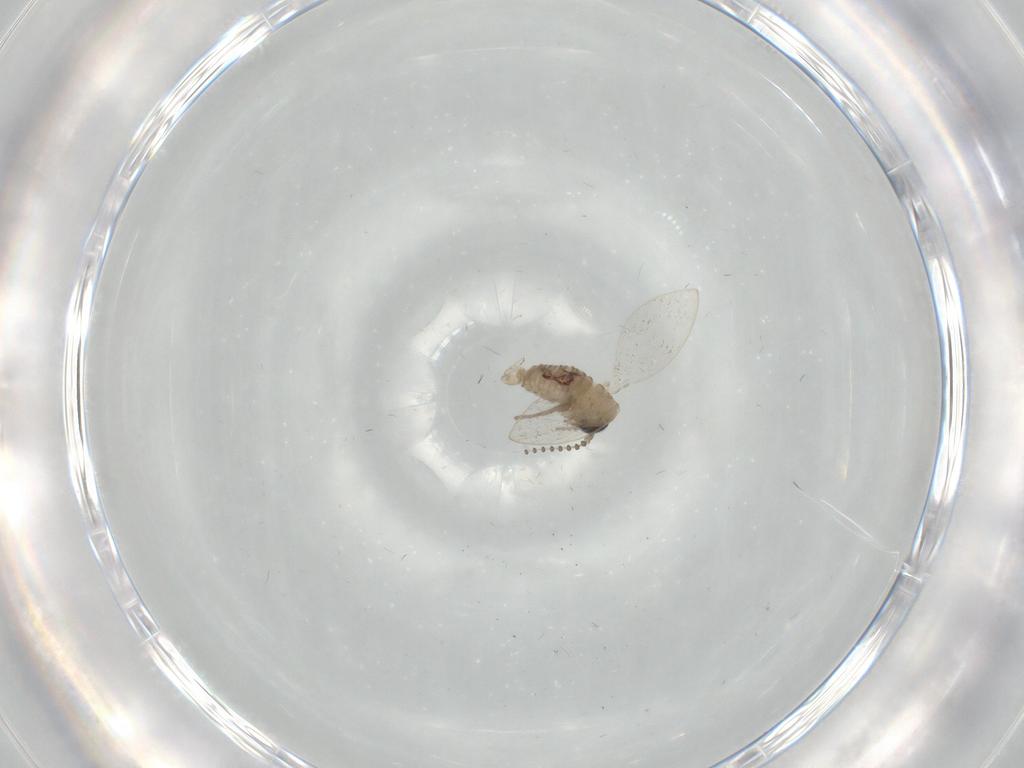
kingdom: Animalia
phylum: Arthropoda
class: Insecta
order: Diptera
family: Psychodidae
